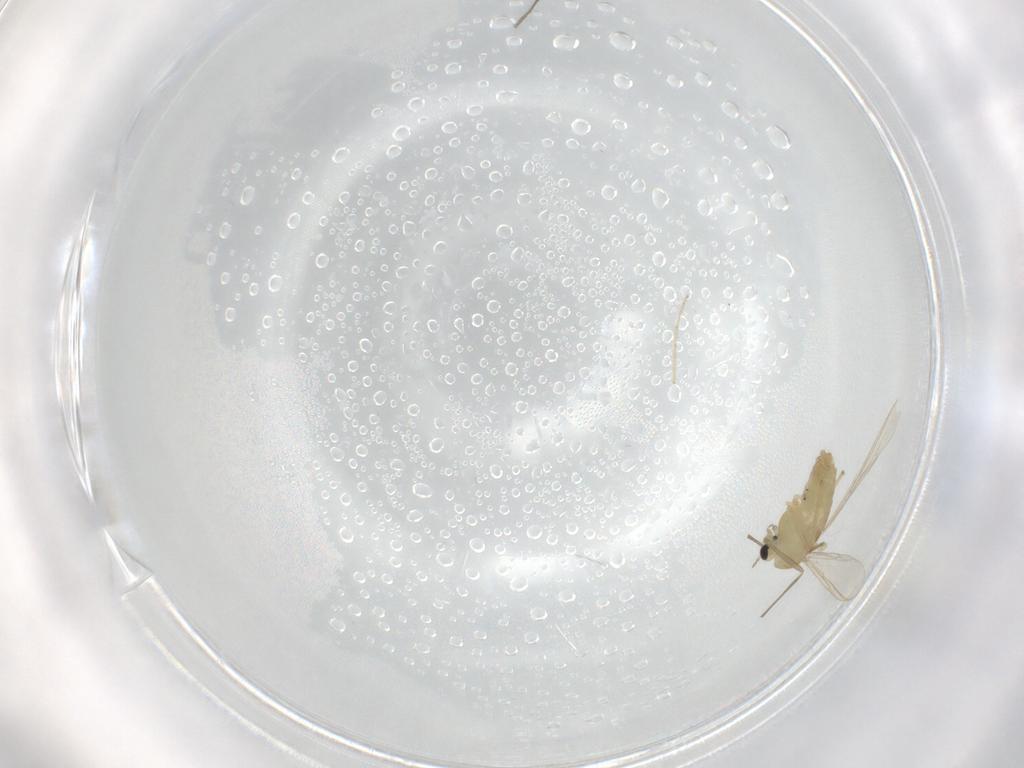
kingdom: Animalia
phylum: Arthropoda
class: Insecta
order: Diptera
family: Chironomidae
